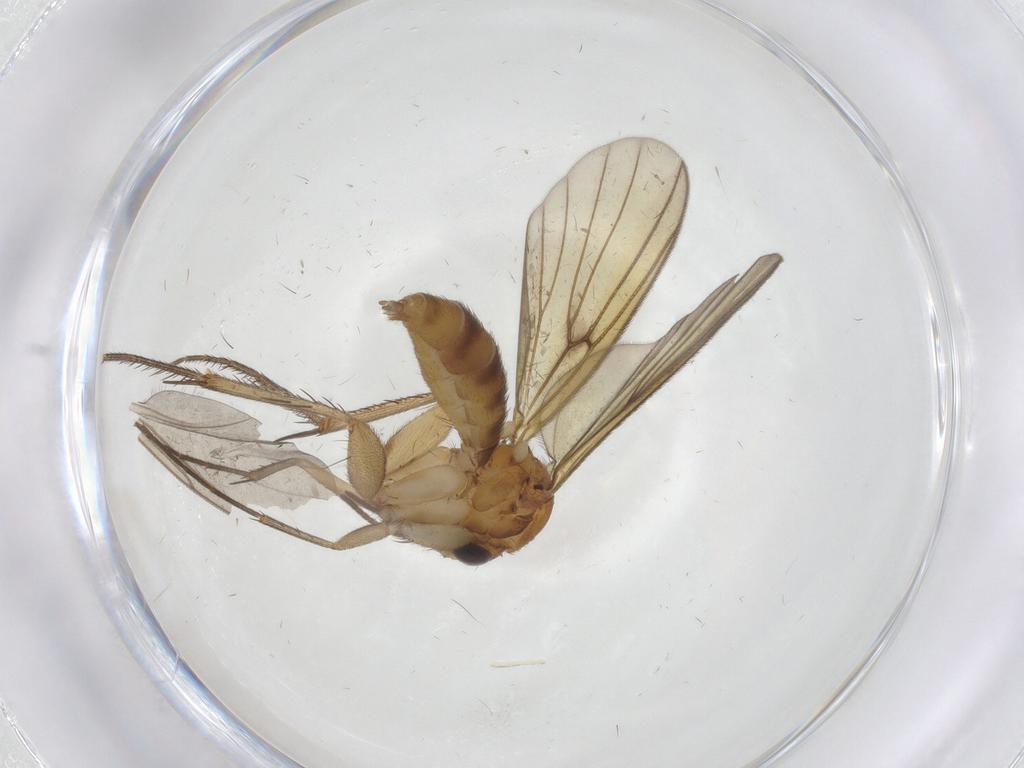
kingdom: Animalia
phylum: Arthropoda
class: Insecta
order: Diptera
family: Mycetophilidae
